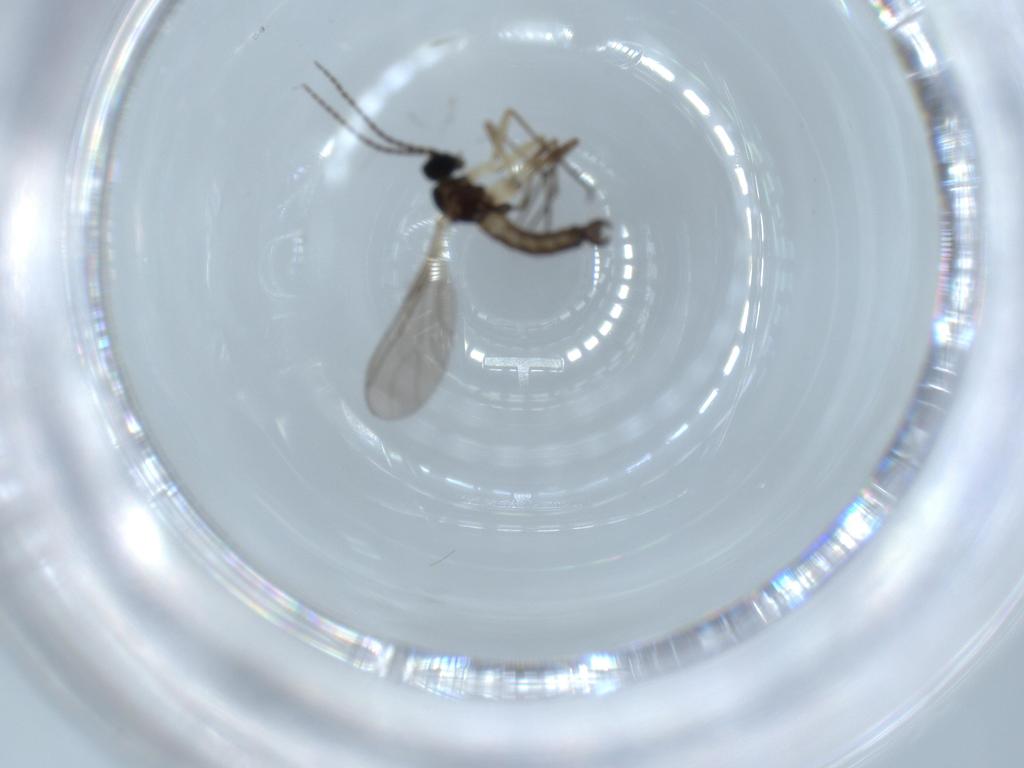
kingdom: Animalia
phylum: Arthropoda
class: Insecta
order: Diptera
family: Sciaridae
